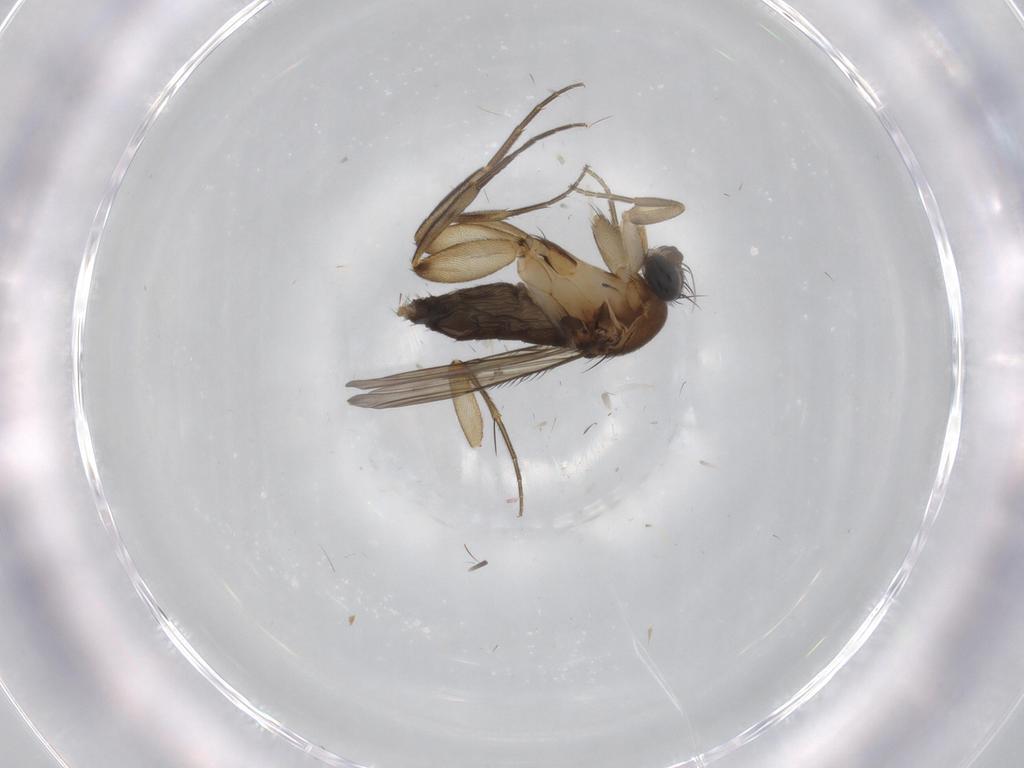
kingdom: Animalia
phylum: Arthropoda
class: Insecta
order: Diptera
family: Phoridae
